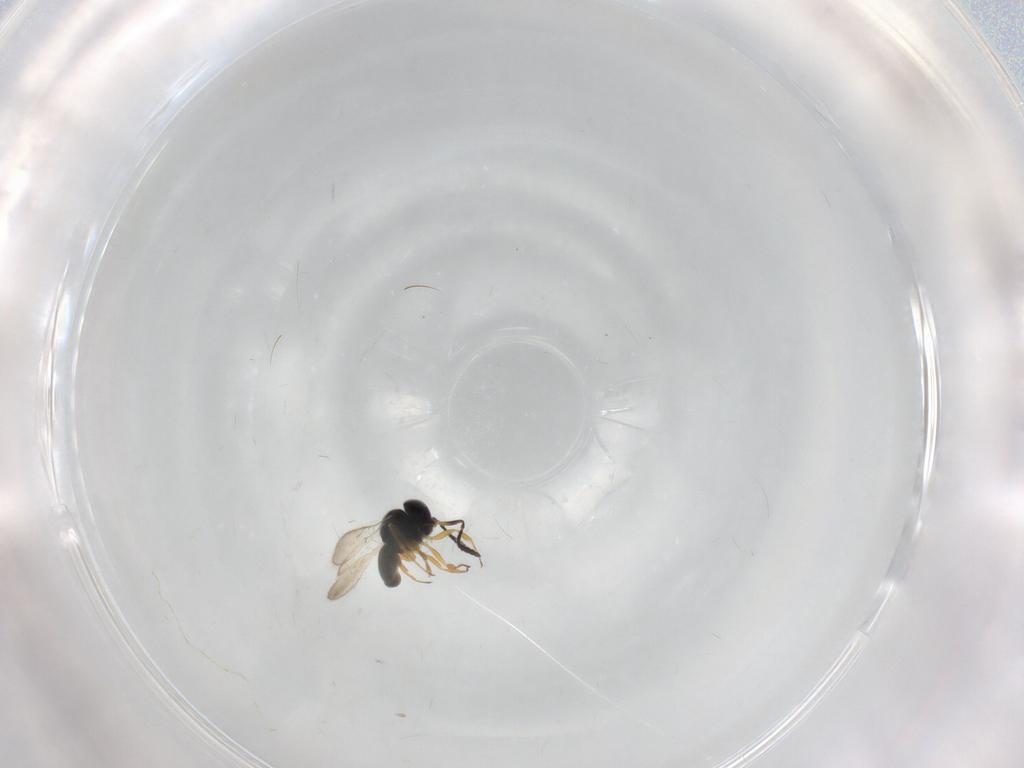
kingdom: Animalia
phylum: Arthropoda
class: Insecta
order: Hymenoptera
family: Scelionidae
